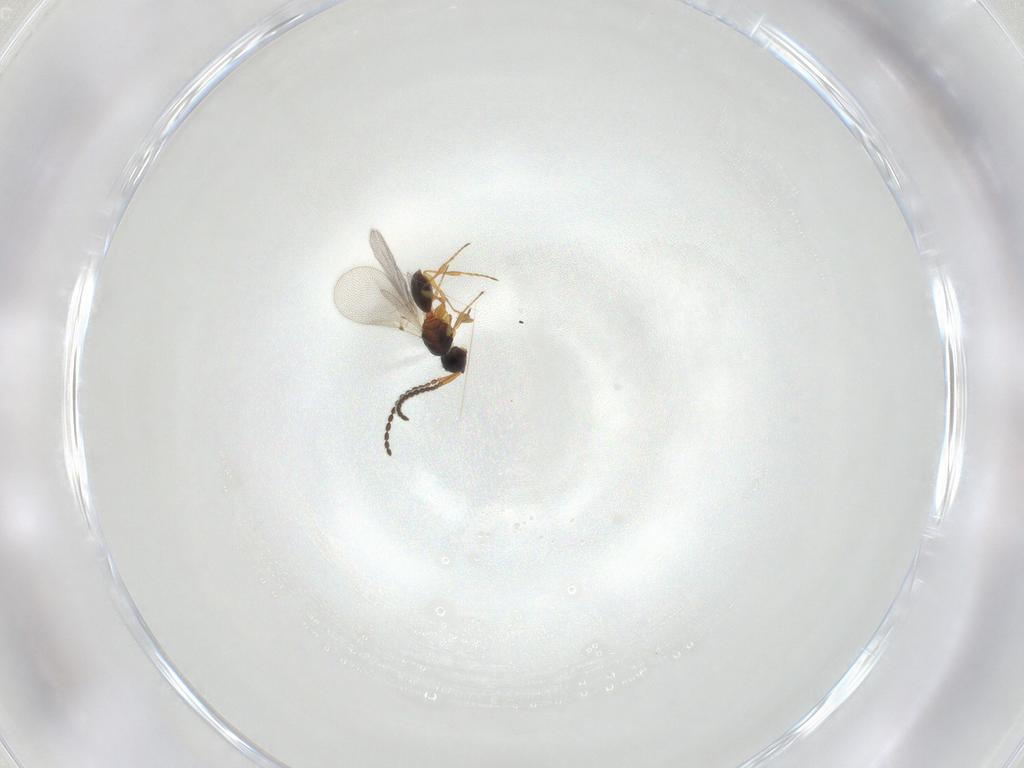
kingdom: Animalia
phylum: Arthropoda
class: Insecta
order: Hymenoptera
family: Diapriidae
